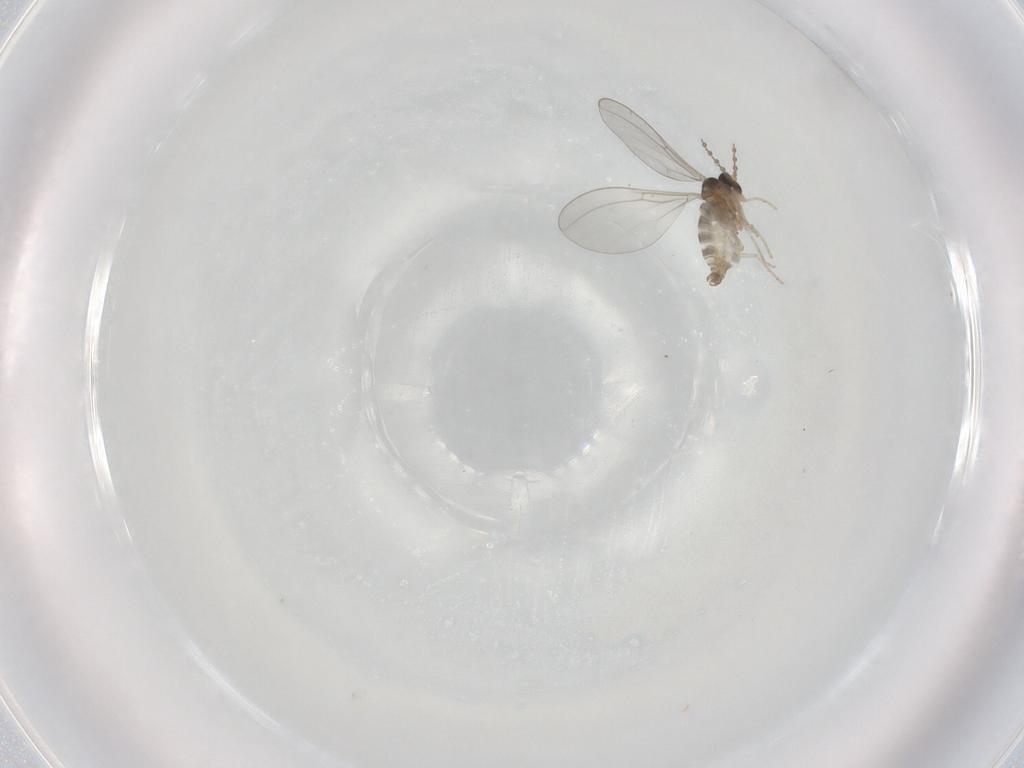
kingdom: Animalia
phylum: Arthropoda
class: Insecta
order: Diptera
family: Cecidomyiidae
